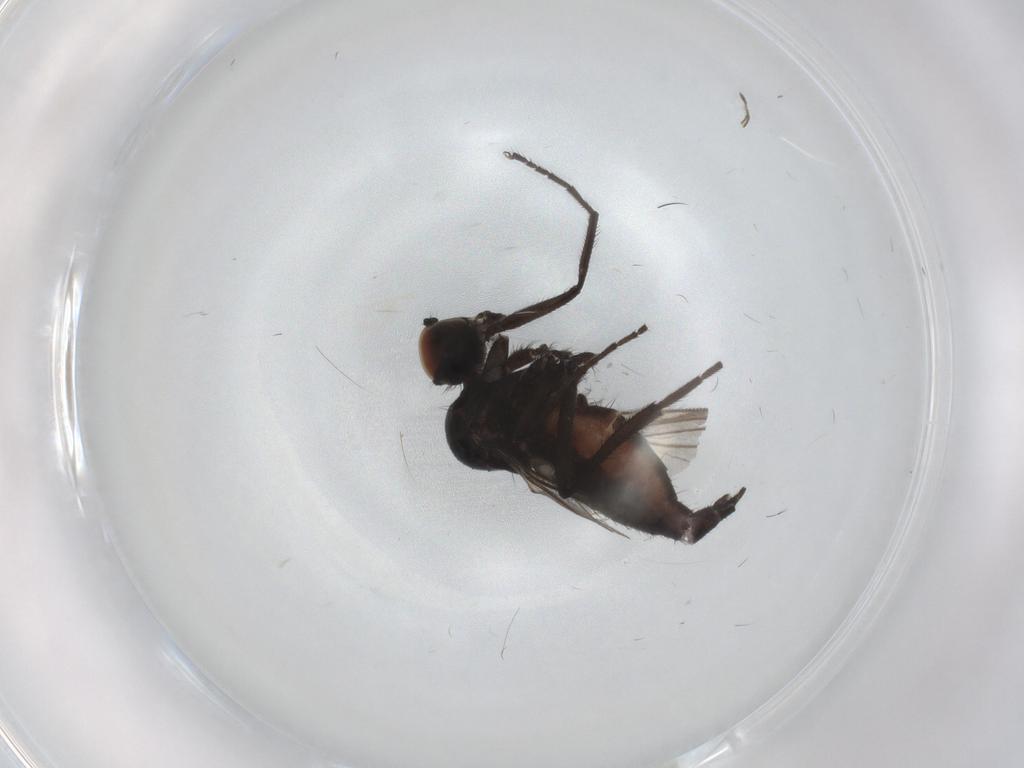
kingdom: Animalia
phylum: Arthropoda
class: Insecta
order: Diptera
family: Hybotidae
